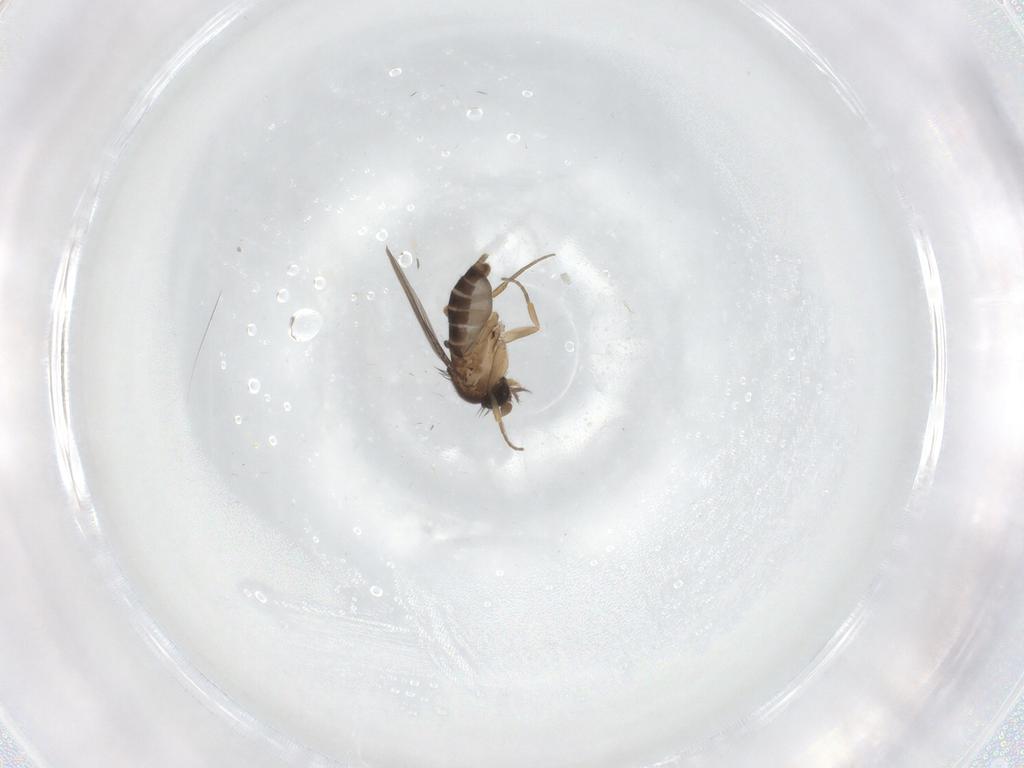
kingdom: Animalia
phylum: Arthropoda
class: Insecta
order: Diptera
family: Phoridae
